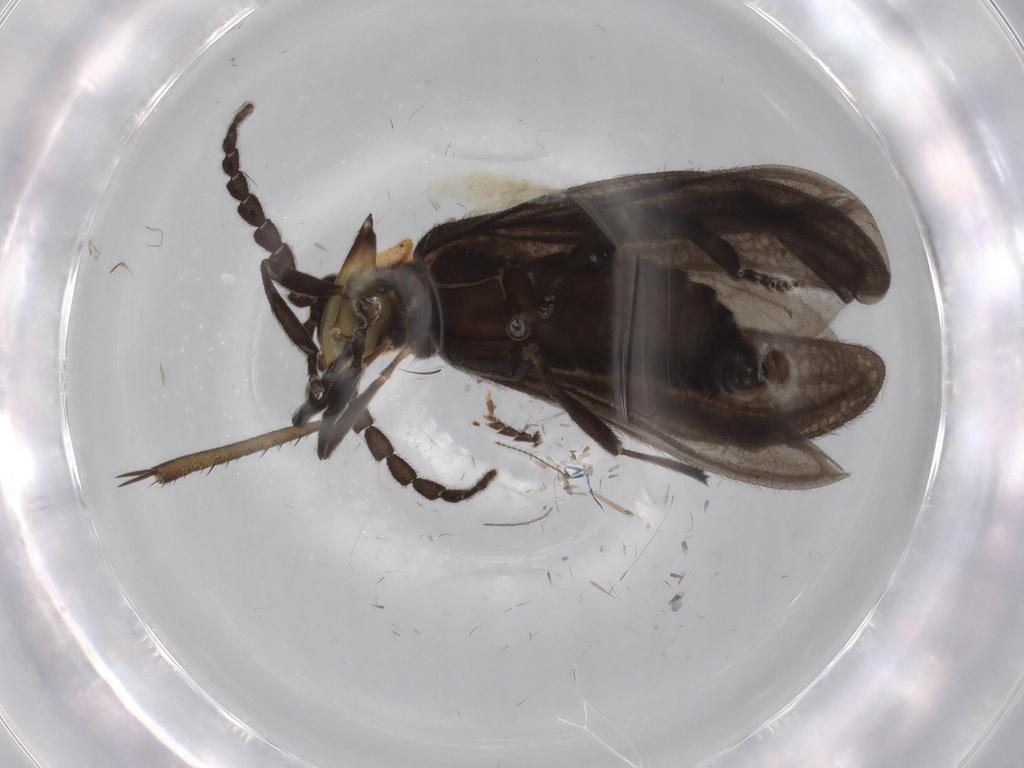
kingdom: Animalia
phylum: Arthropoda
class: Insecta
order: Coleoptera
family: Lycidae
